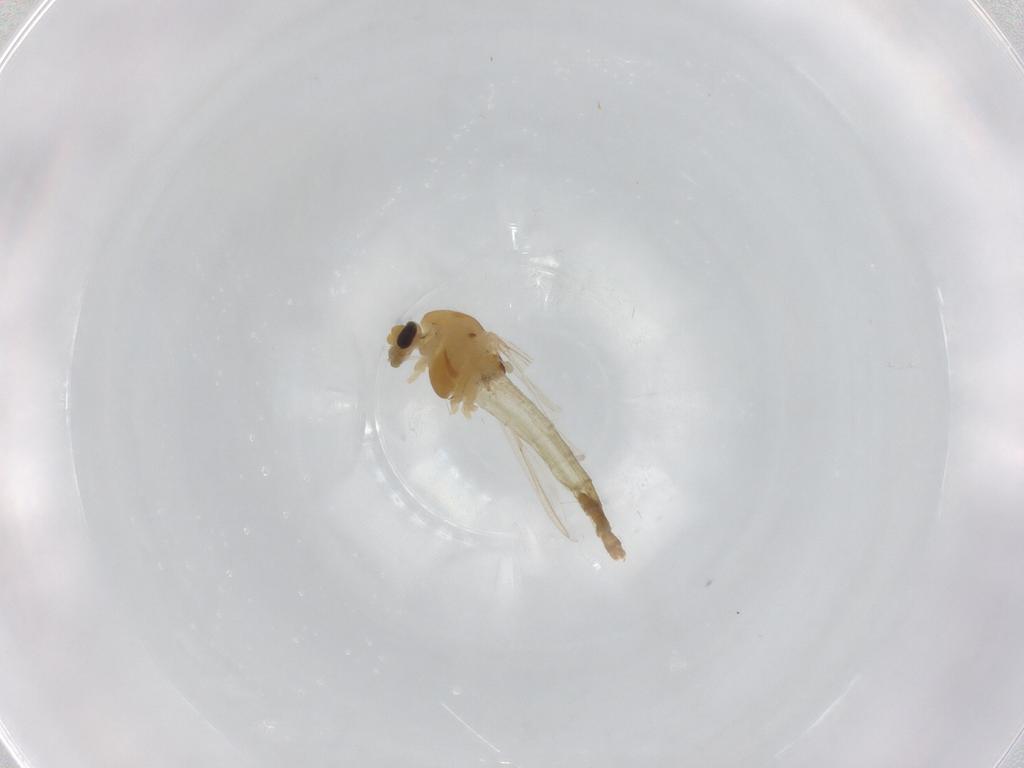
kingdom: Animalia
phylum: Arthropoda
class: Insecta
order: Diptera
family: Chironomidae
